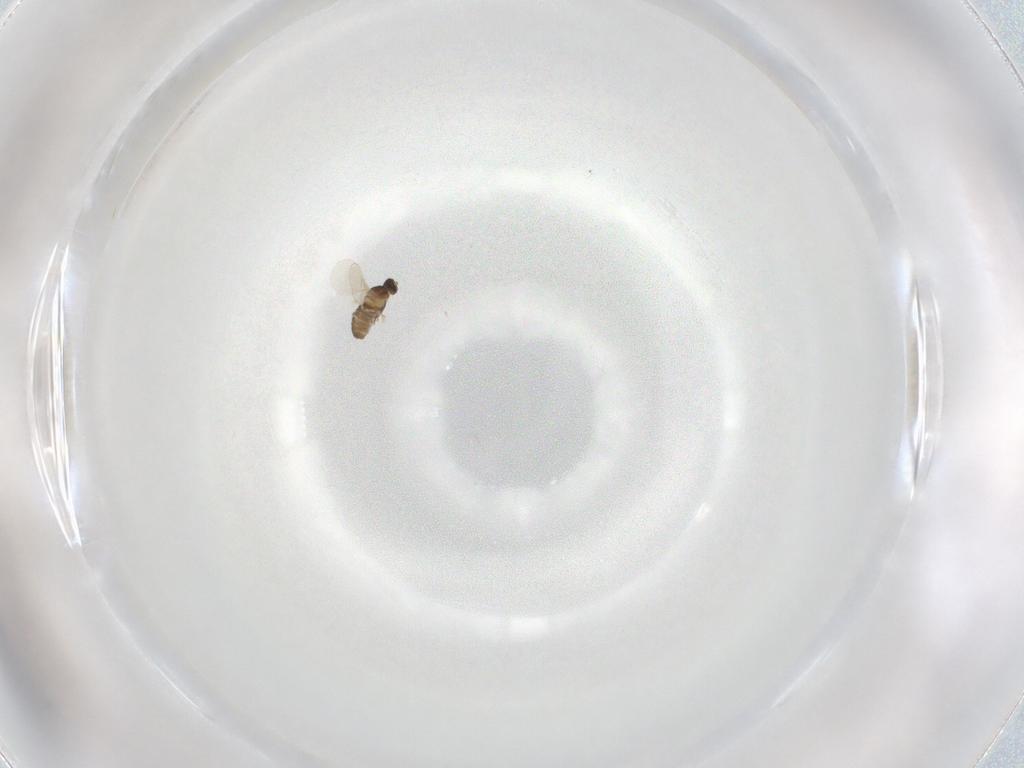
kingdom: Animalia
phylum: Arthropoda
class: Insecta
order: Diptera
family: Cecidomyiidae
